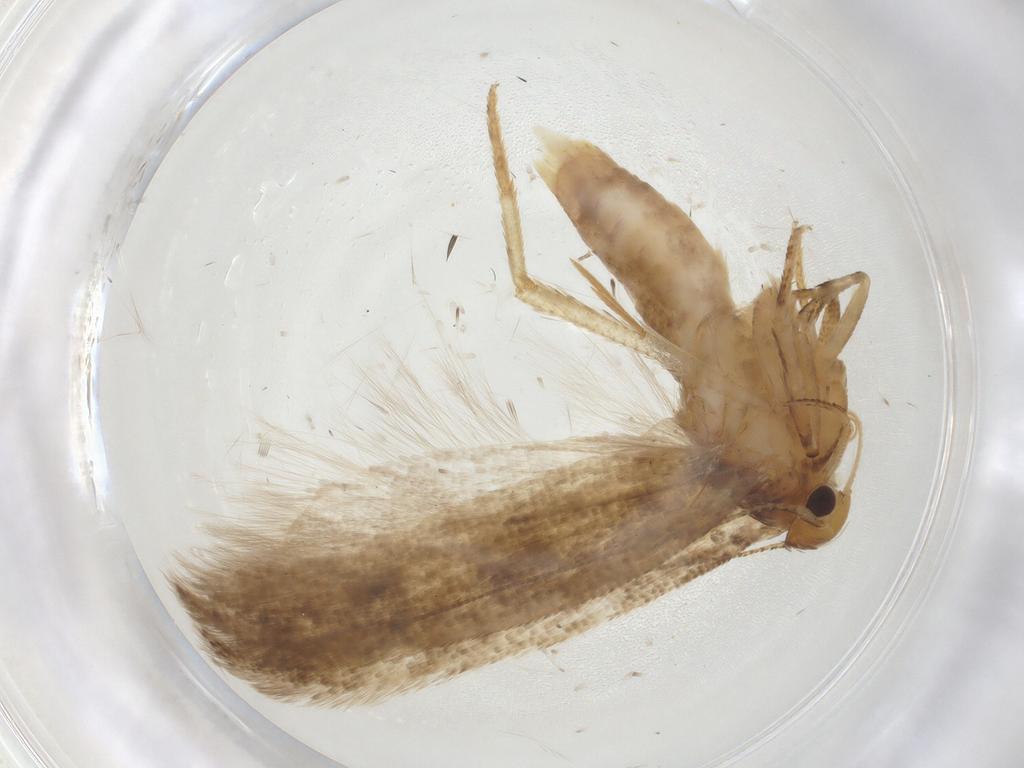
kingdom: Animalia
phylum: Arthropoda
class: Insecta
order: Lepidoptera
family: Gelechiidae
